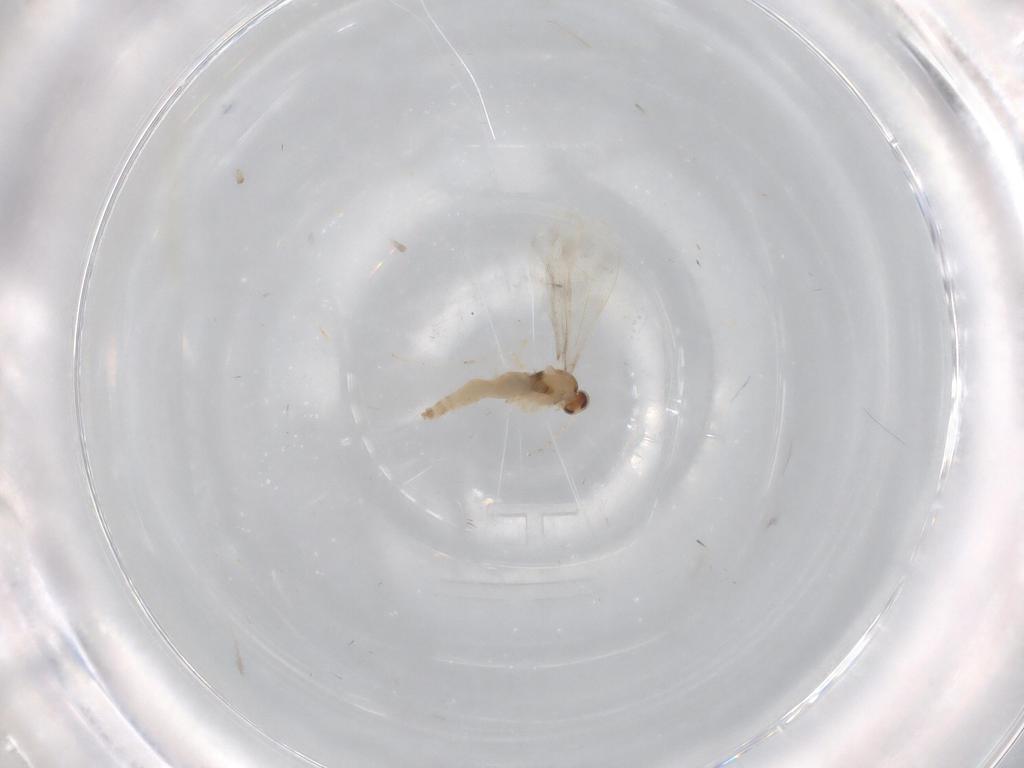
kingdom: Animalia
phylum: Arthropoda
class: Insecta
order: Diptera
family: Cecidomyiidae
